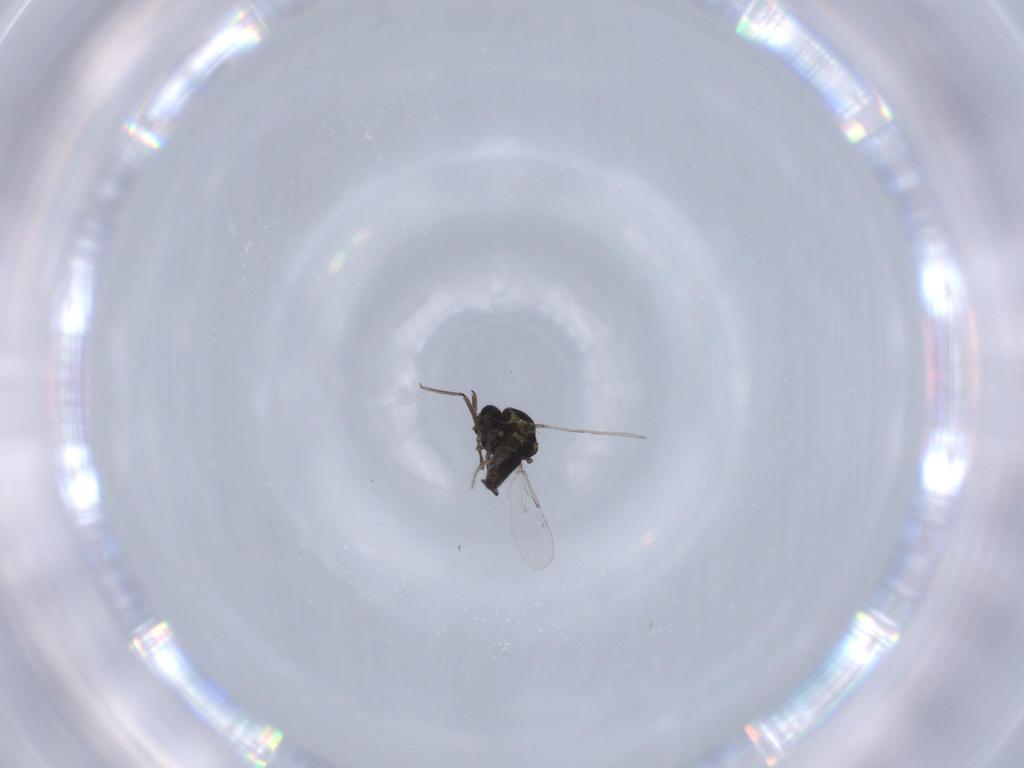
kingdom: Animalia
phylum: Arthropoda
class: Insecta
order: Diptera
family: Ceratopogonidae
